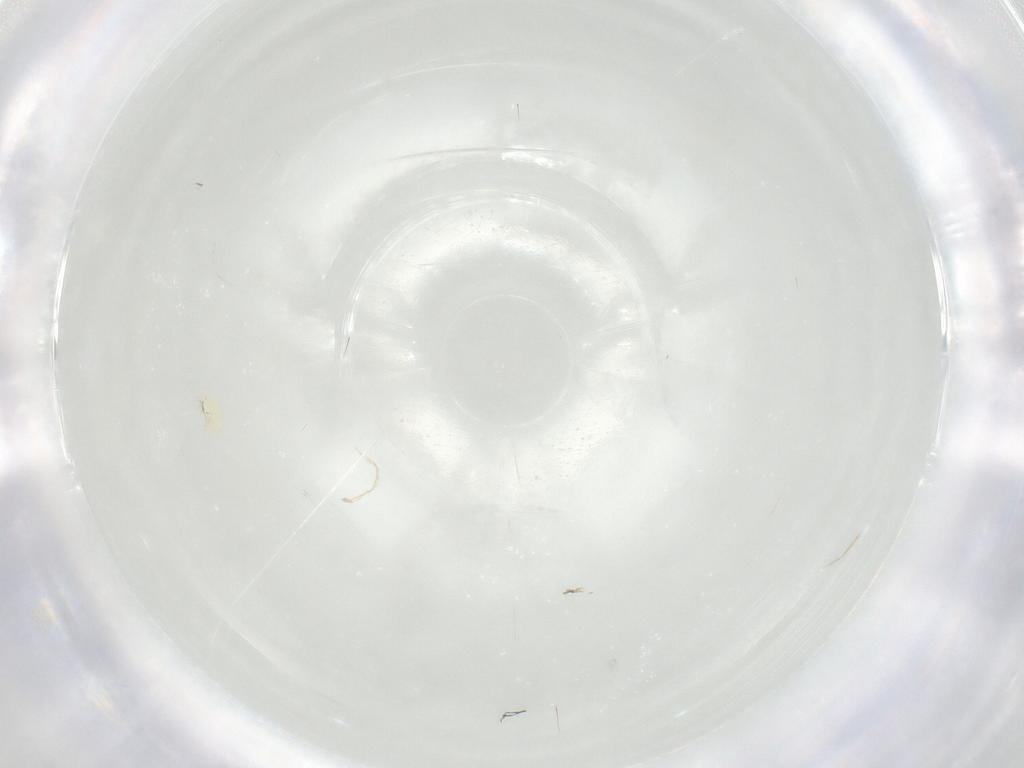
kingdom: Animalia
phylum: Arthropoda
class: Arachnida
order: Trombidiformes
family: Tetranychidae
